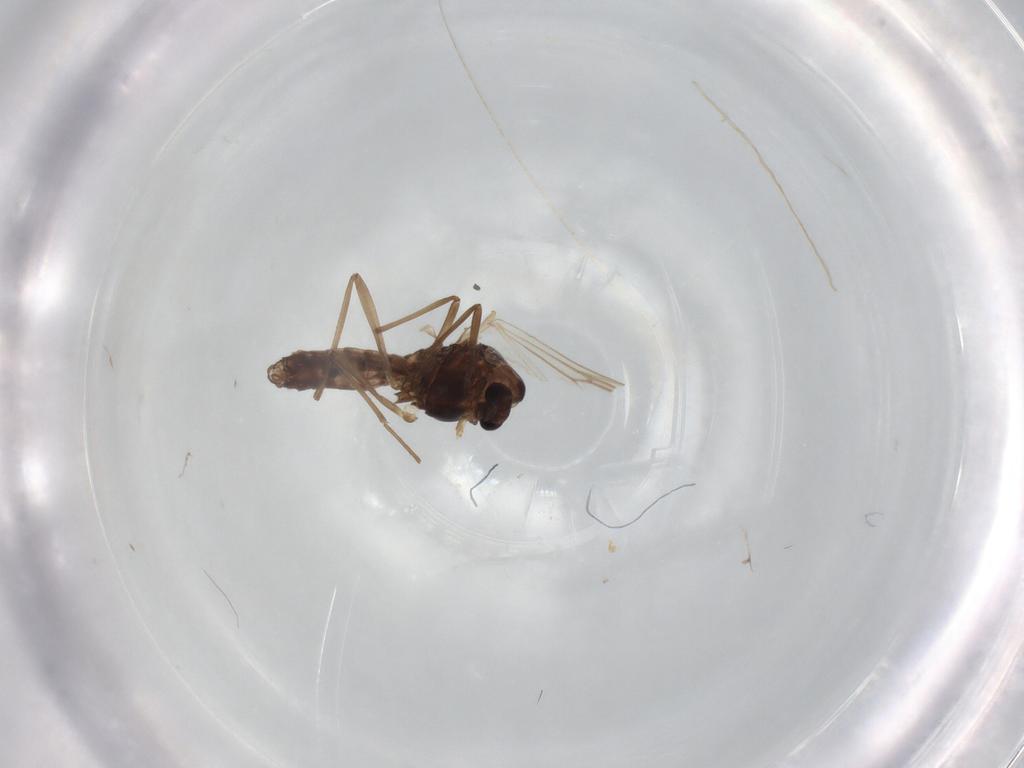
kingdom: Animalia
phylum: Arthropoda
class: Insecta
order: Diptera
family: Chironomidae
